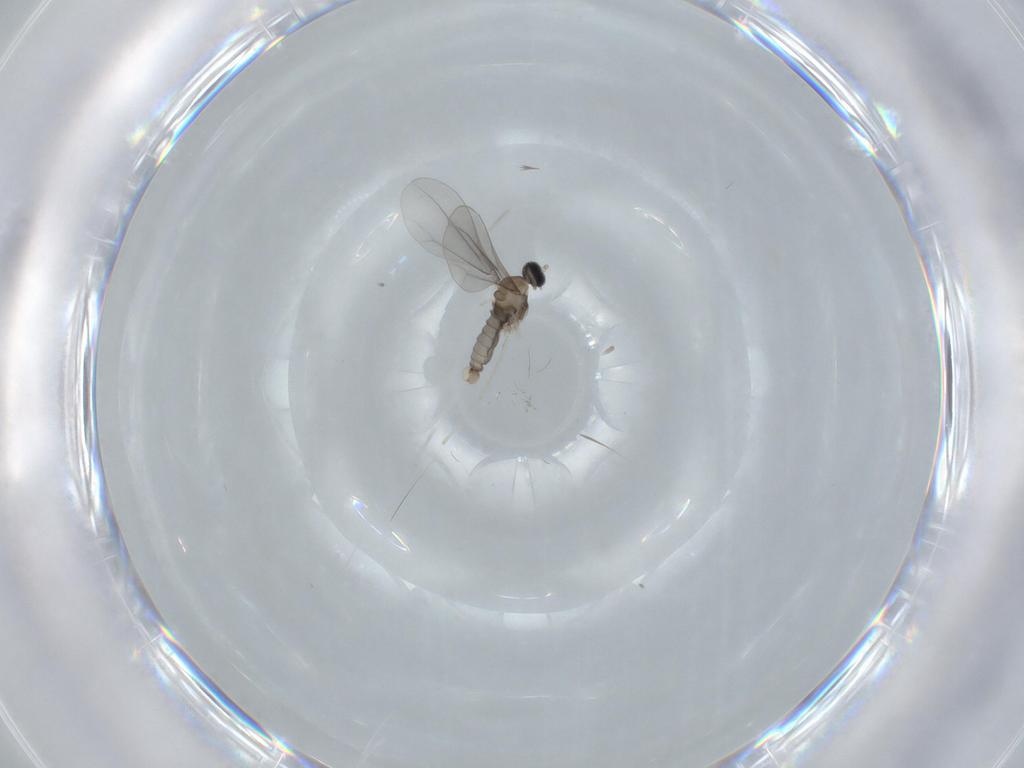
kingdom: Animalia
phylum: Arthropoda
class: Insecta
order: Diptera
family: Cecidomyiidae
